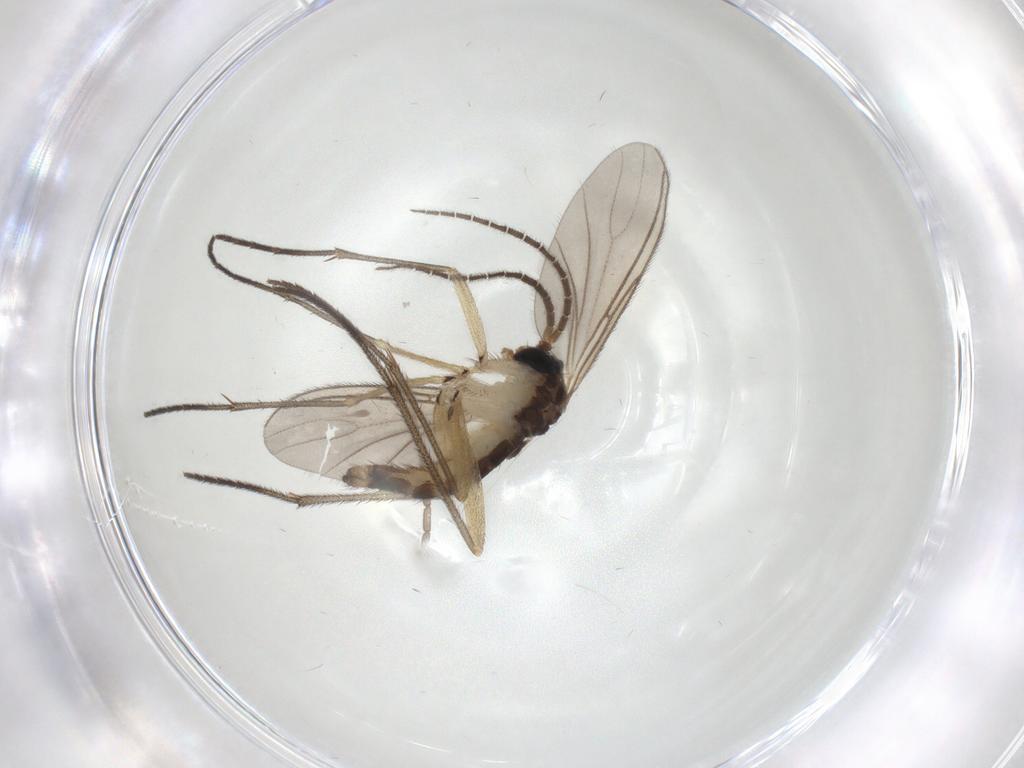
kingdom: Animalia
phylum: Arthropoda
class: Insecta
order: Diptera
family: Sciaridae
